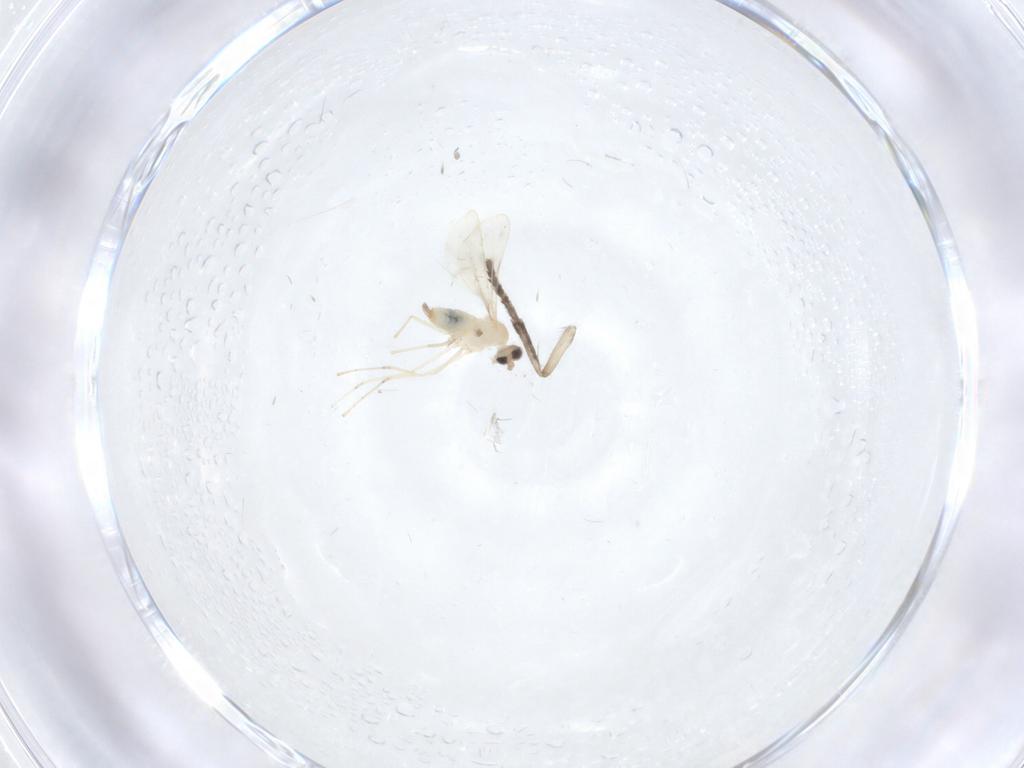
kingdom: Animalia
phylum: Arthropoda
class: Insecta
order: Diptera
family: Psychodidae
